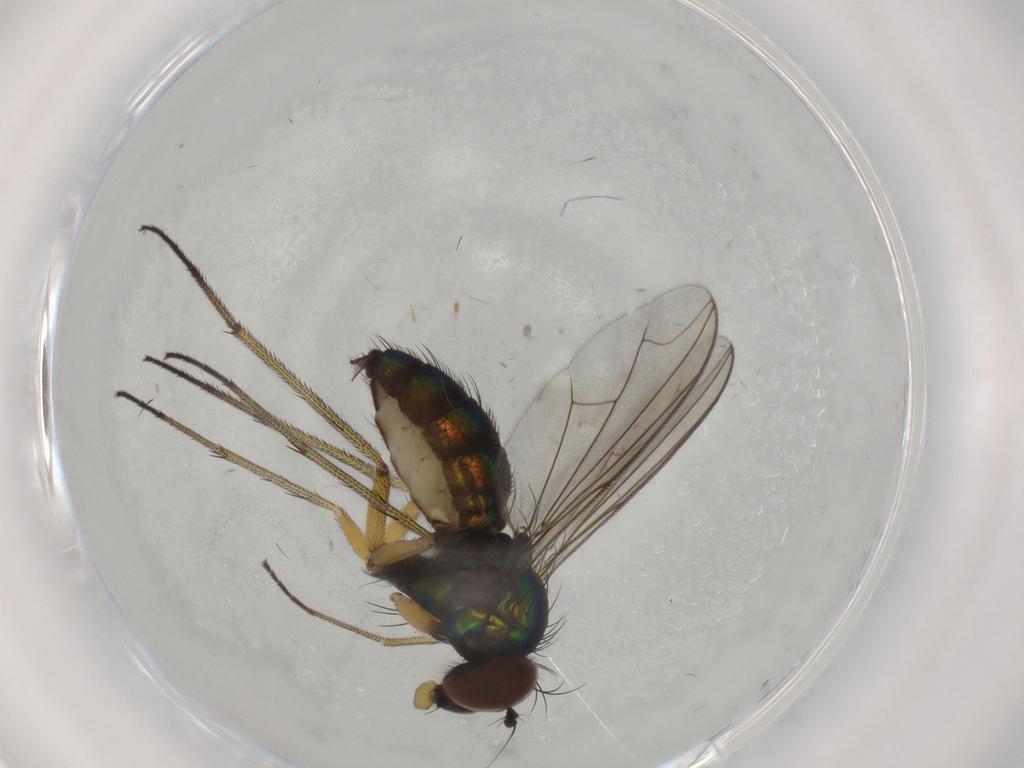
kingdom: Animalia
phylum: Arthropoda
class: Insecta
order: Diptera
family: Dolichopodidae
